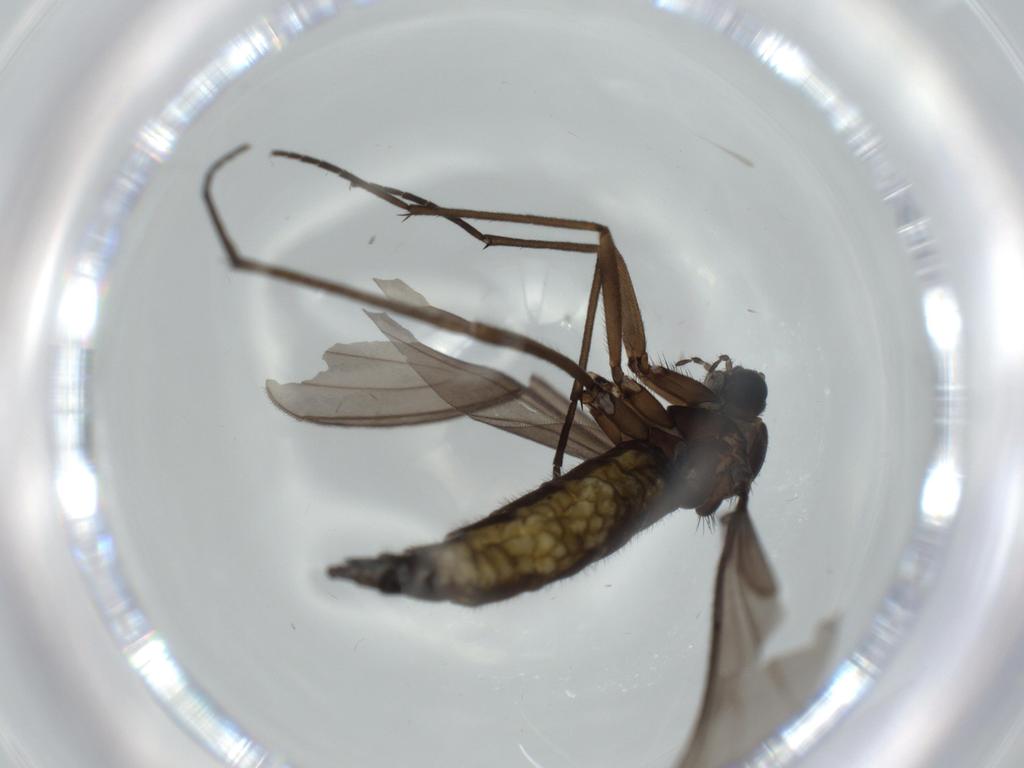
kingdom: Animalia
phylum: Arthropoda
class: Insecta
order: Diptera
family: Sciaridae
